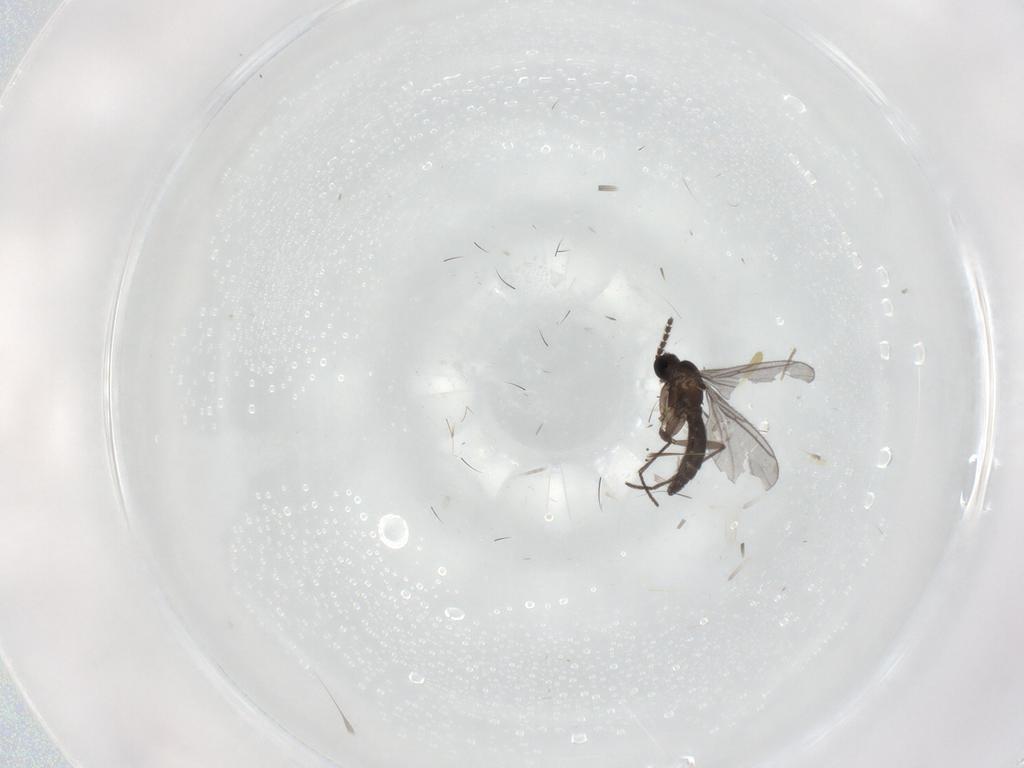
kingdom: Animalia
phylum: Arthropoda
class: Insecta
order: Diptera
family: Psychodidae
